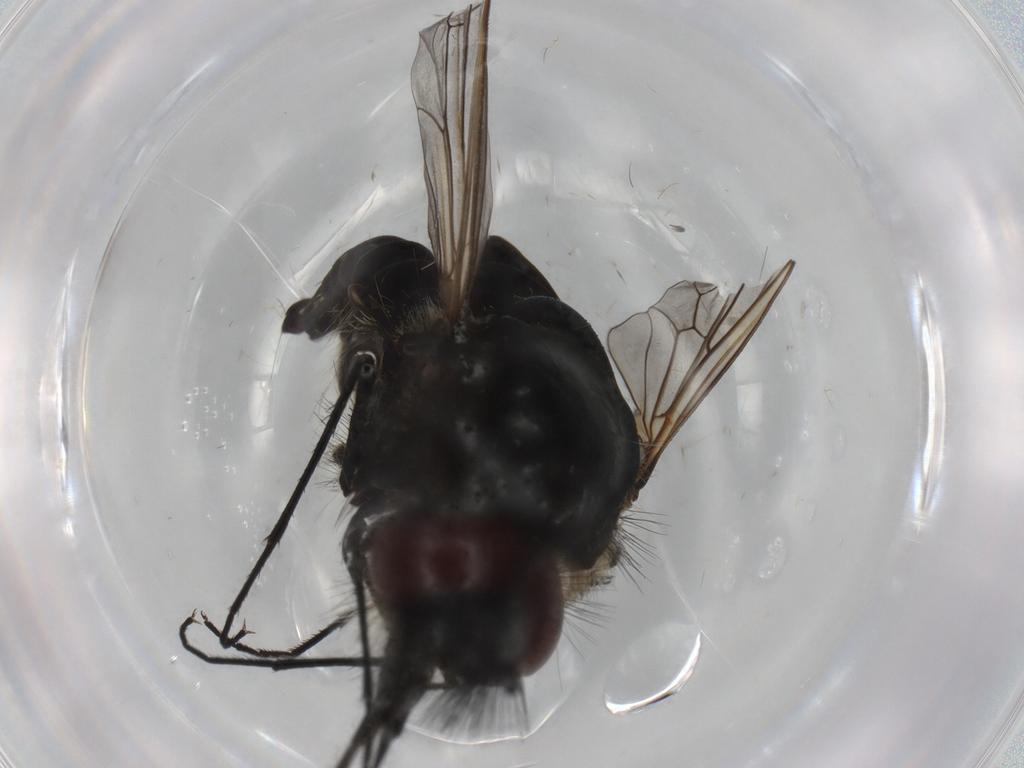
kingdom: Animalia
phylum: Arthropoda
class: Insecta
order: Diptera
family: Bombyliidae
